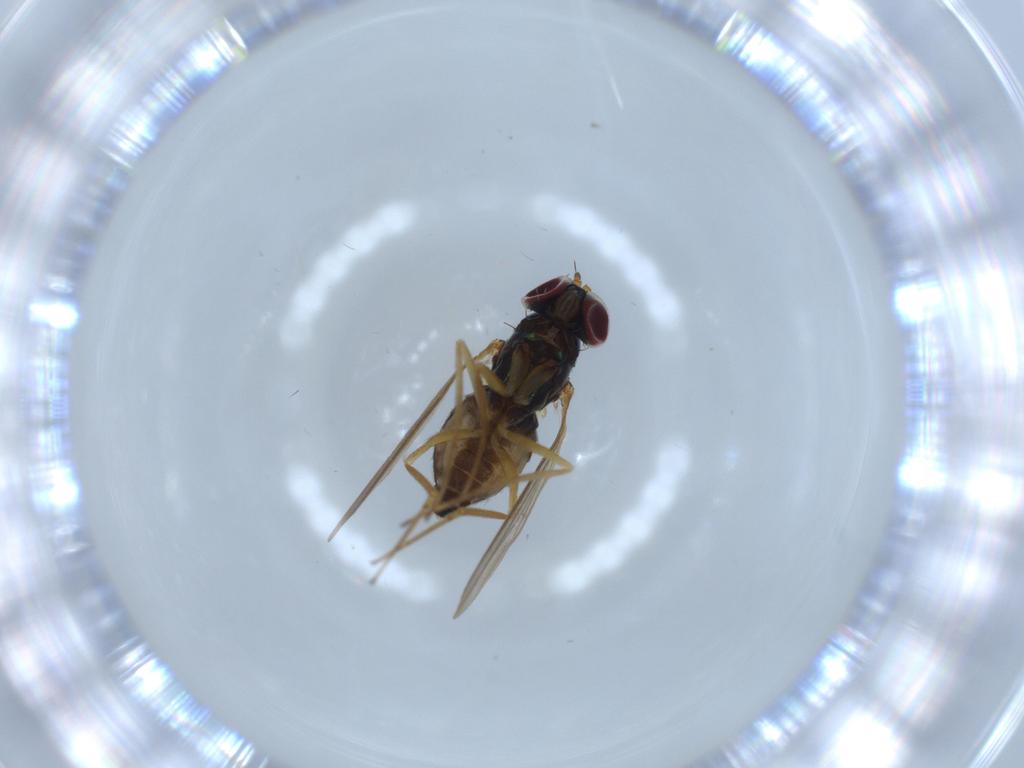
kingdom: Animalia
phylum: Arthropoda
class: Insecta
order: Diptera
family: Dolichopodidae
